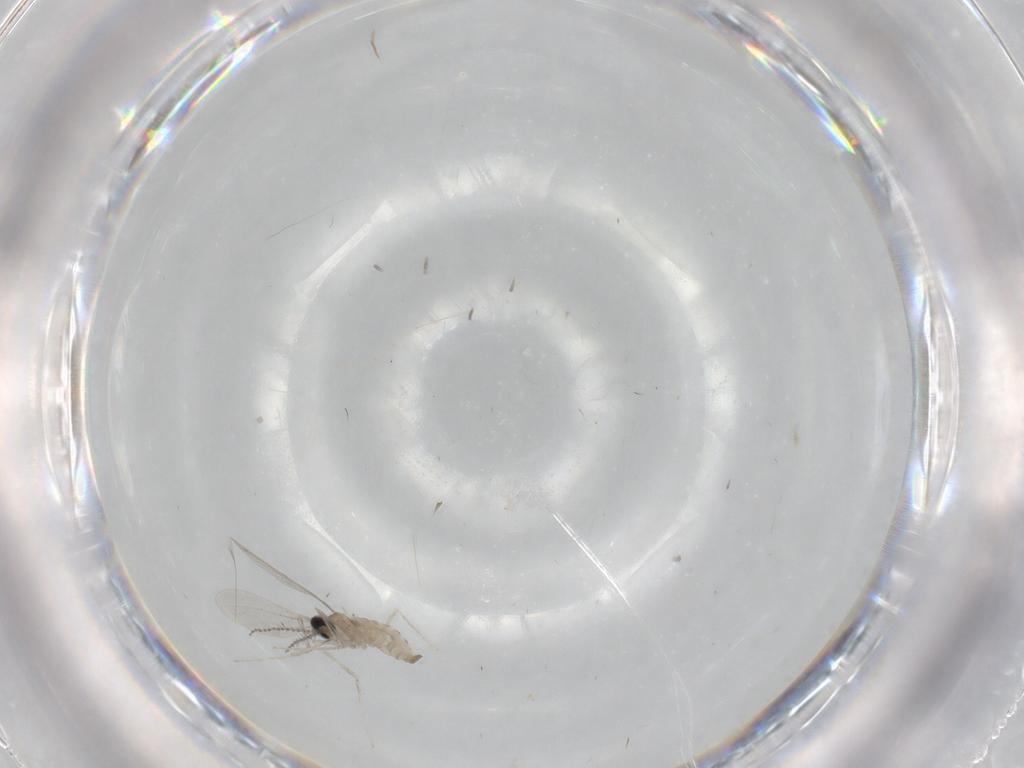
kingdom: Animalia
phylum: Arthropoda
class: Insecta
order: Diptera
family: Cecidomyiidae
